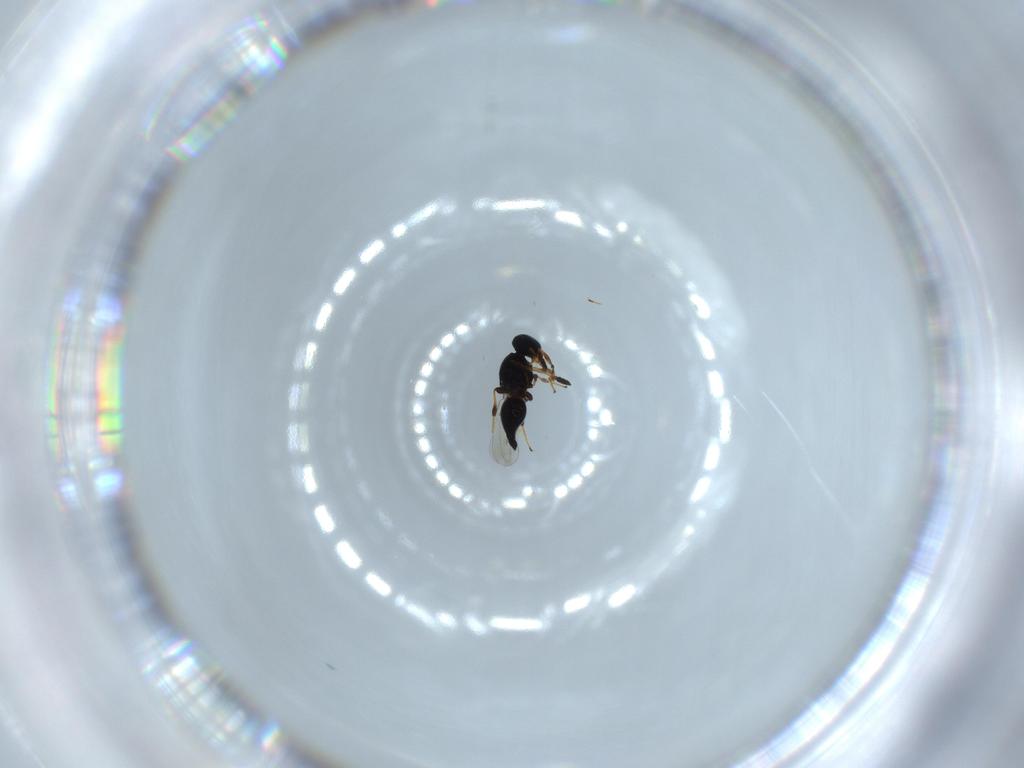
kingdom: Animalia
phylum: Arthropoda
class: Insecta
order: Hymenoptera
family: Platygastridae
